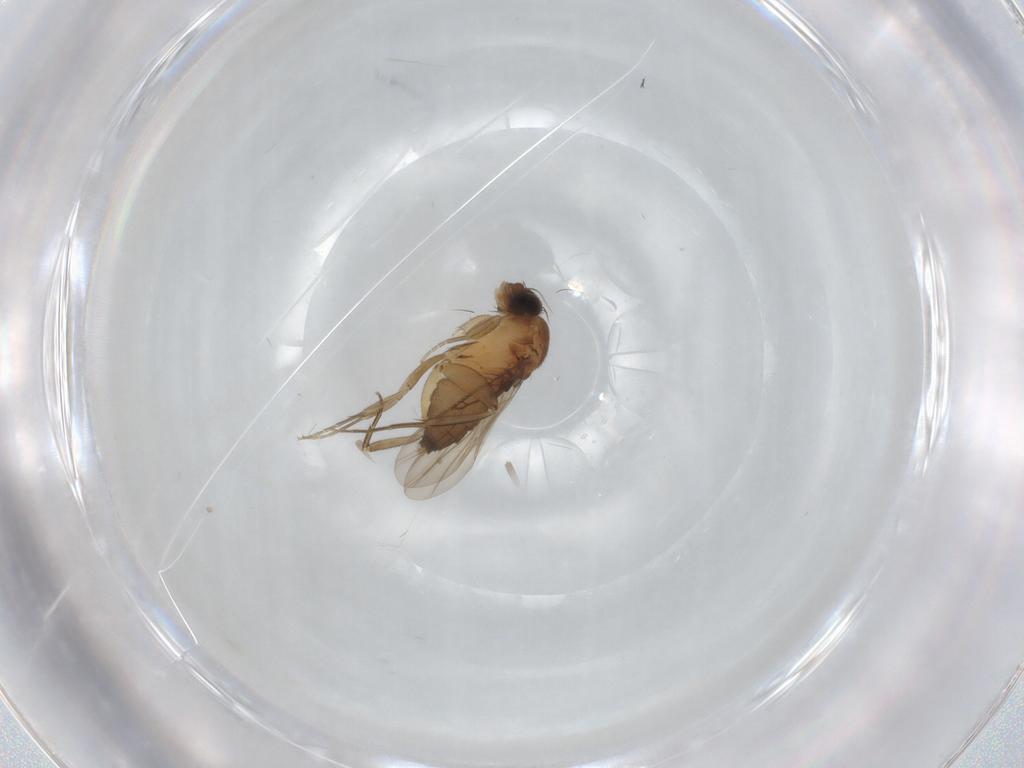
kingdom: Animalia
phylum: Arthropoda
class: Insecta
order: Diptera
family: Phoridae
